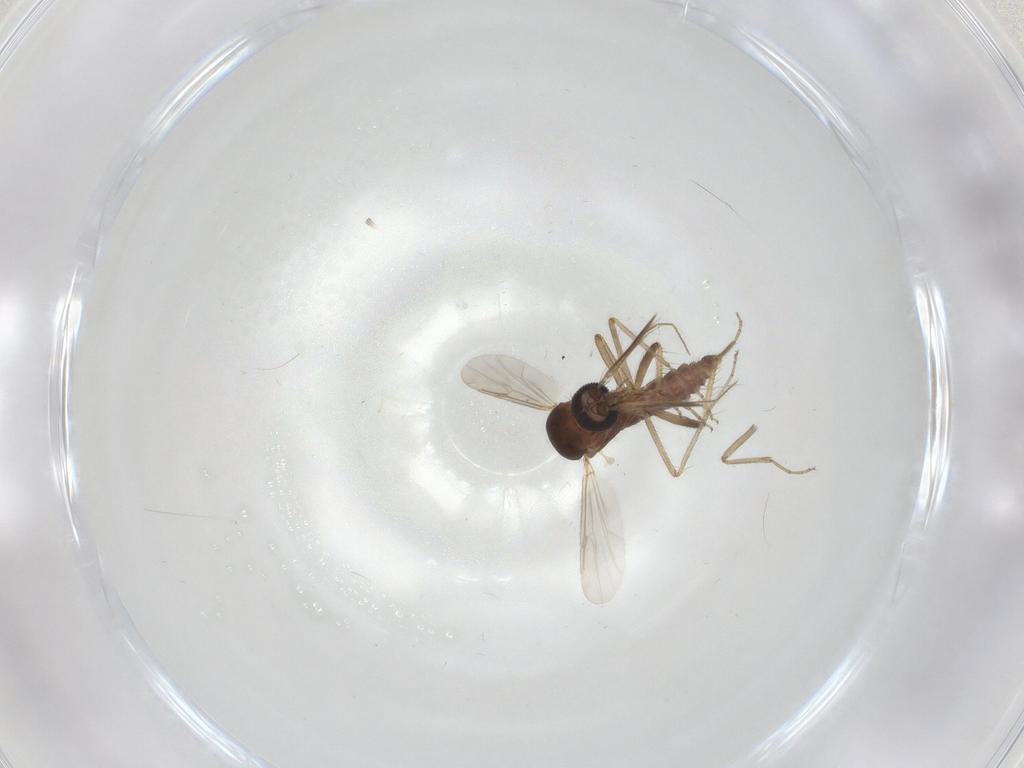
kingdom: Animalia
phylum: Arthropoda
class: Insecta
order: Diptera
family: Ceratopogonidae
